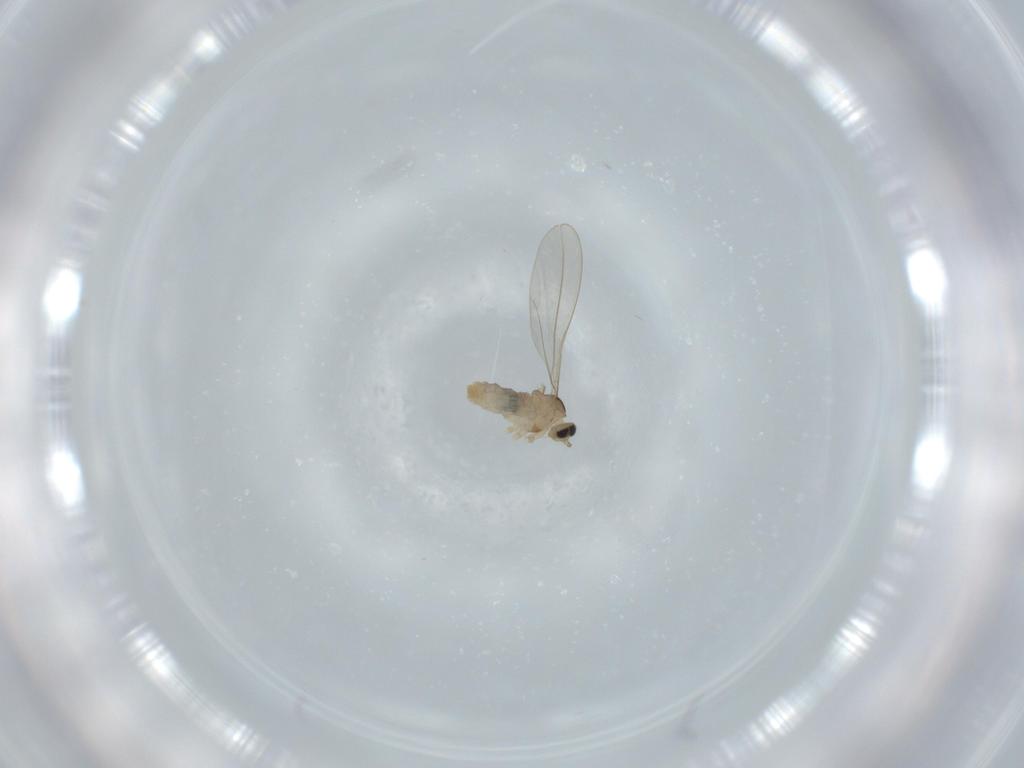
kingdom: Animalia
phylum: Arthropoda
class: Insecta
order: Diptera
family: Cecidomyiidae
